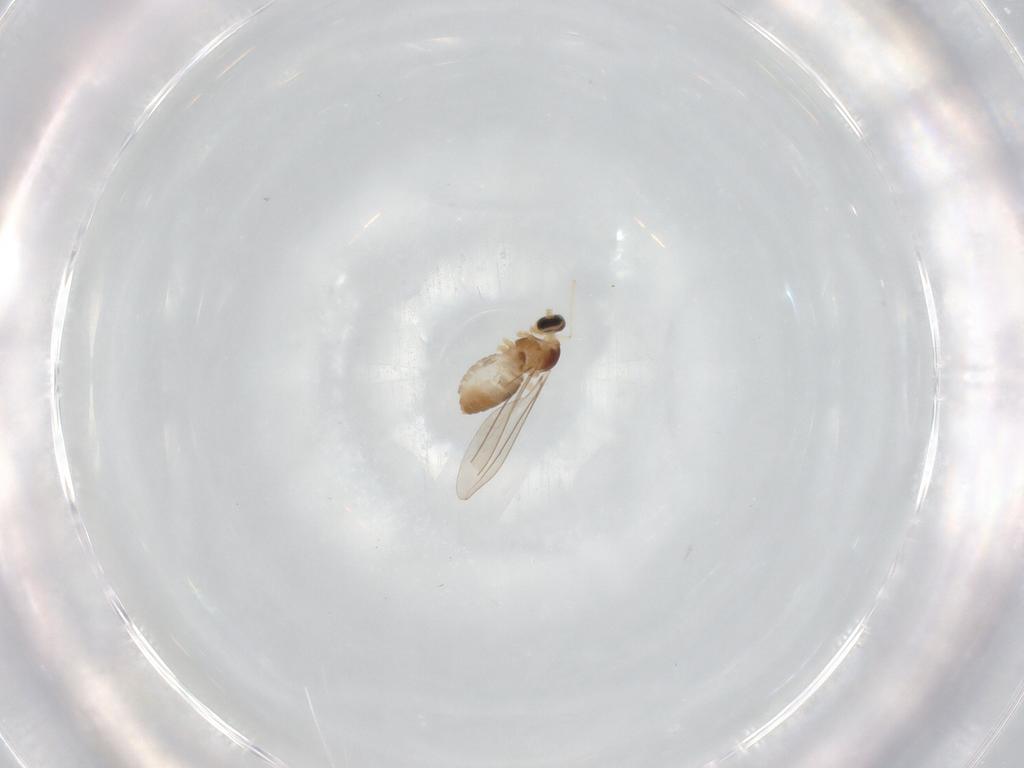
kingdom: Animalia
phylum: Arthropoda
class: Insecta
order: Diptera
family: Cecidomyiidae
